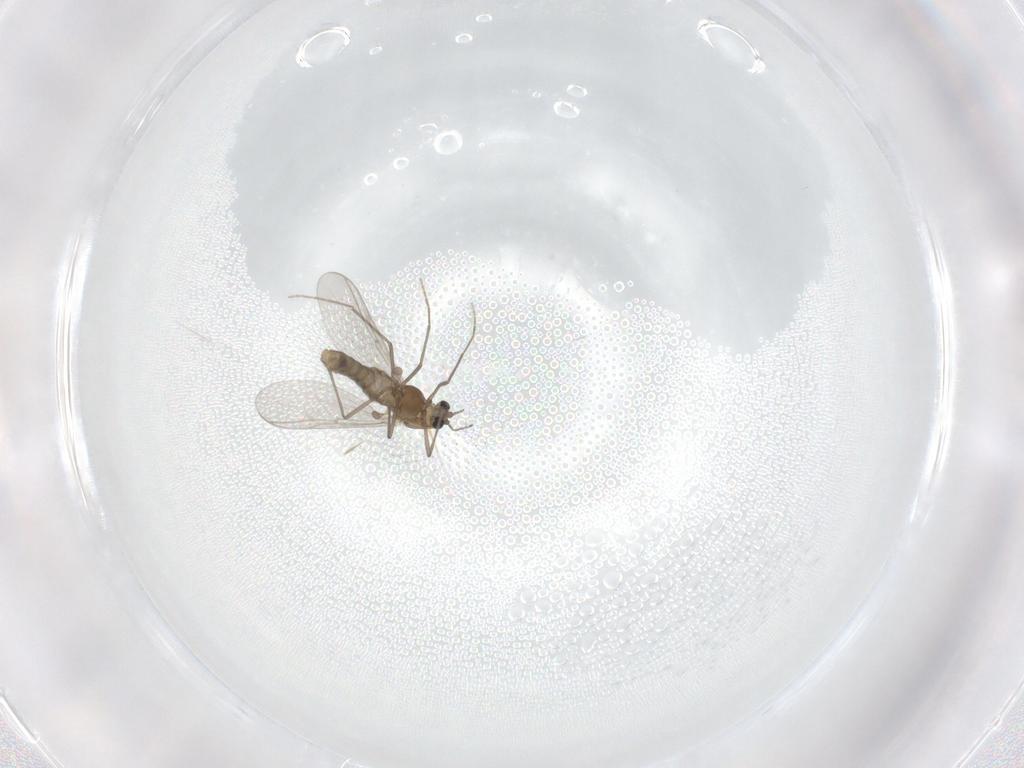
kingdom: Animalia
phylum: Arthropoda
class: Insecta
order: Diptera
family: Chironomidae
